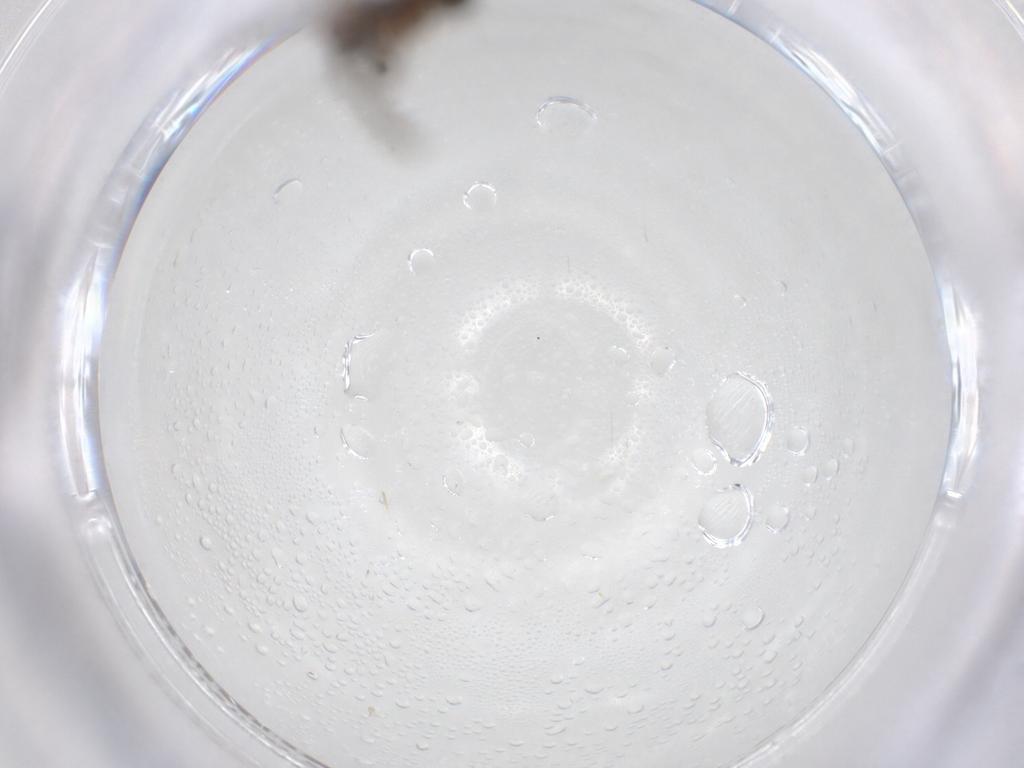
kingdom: Animalia
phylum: Arthropoda
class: Insecta
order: Diptera
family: Sciaridae
